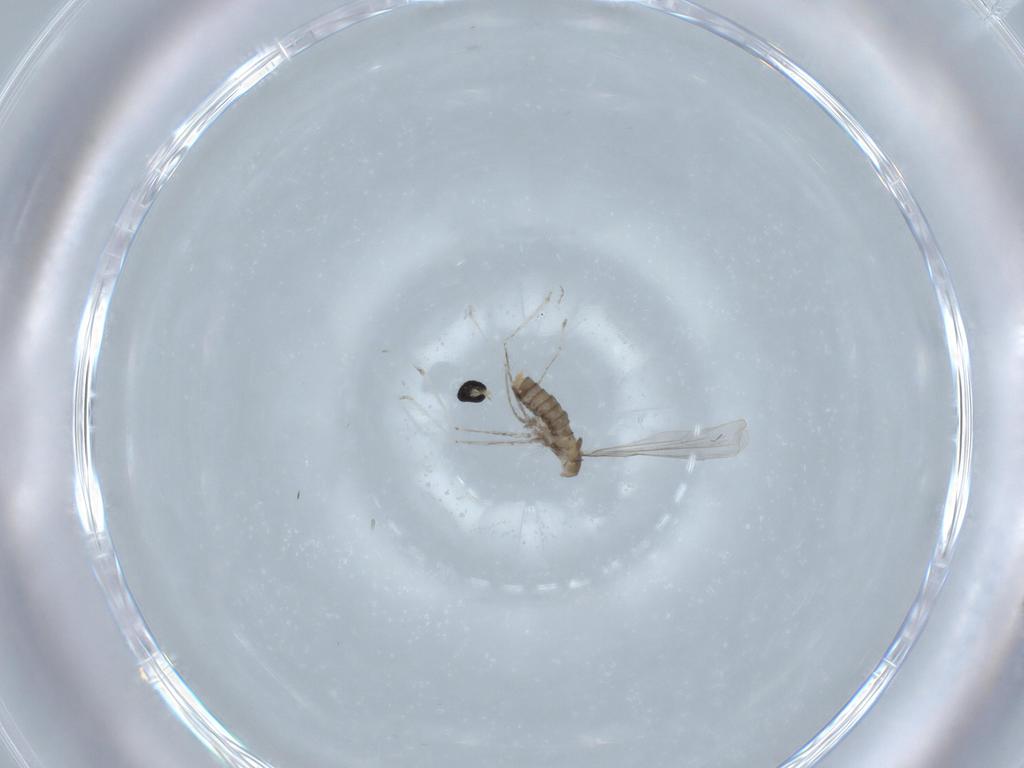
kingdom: Animalia
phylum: Arthropoda
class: Insecta
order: Diptera
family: Cecidomyiidae
